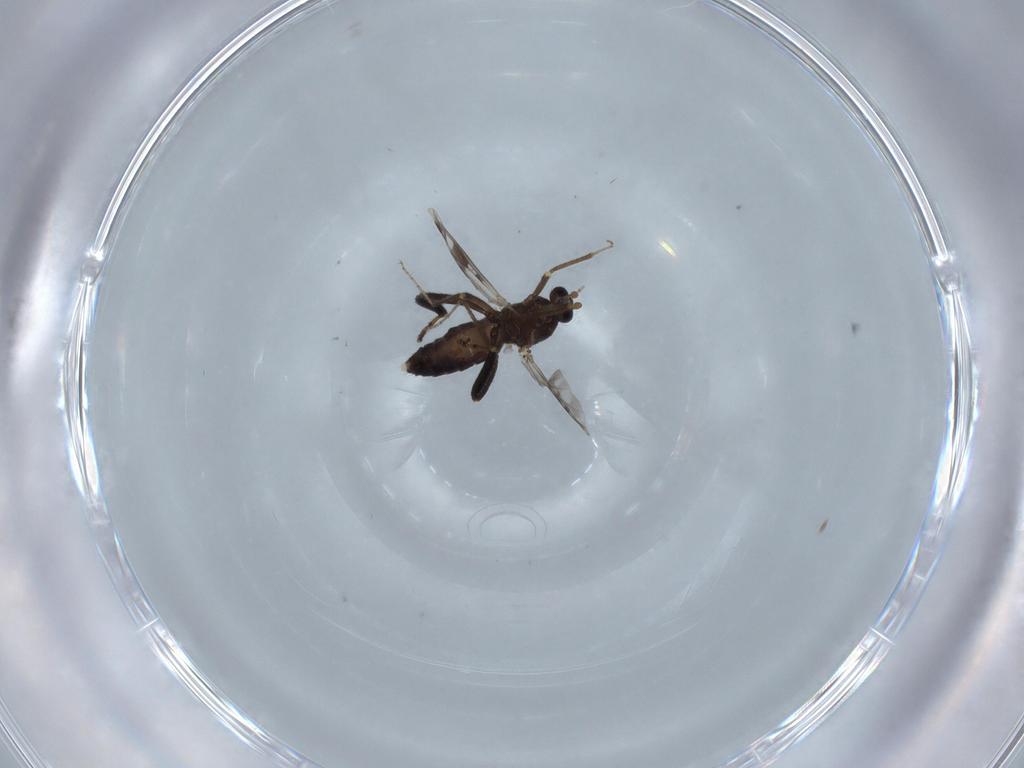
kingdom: Animalia
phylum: Arthropoda
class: Insecta
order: Diptera
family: Ceratopogonidae
